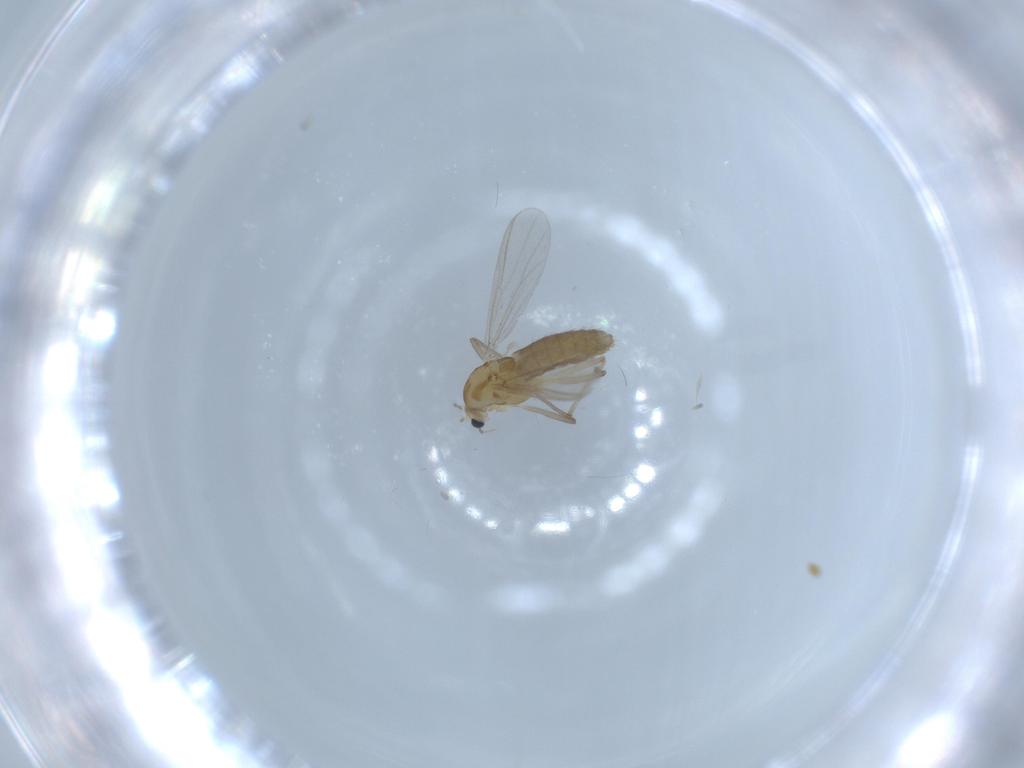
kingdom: Animalia
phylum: Arthropoda
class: Insecta
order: Diptera
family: Chironomidae
